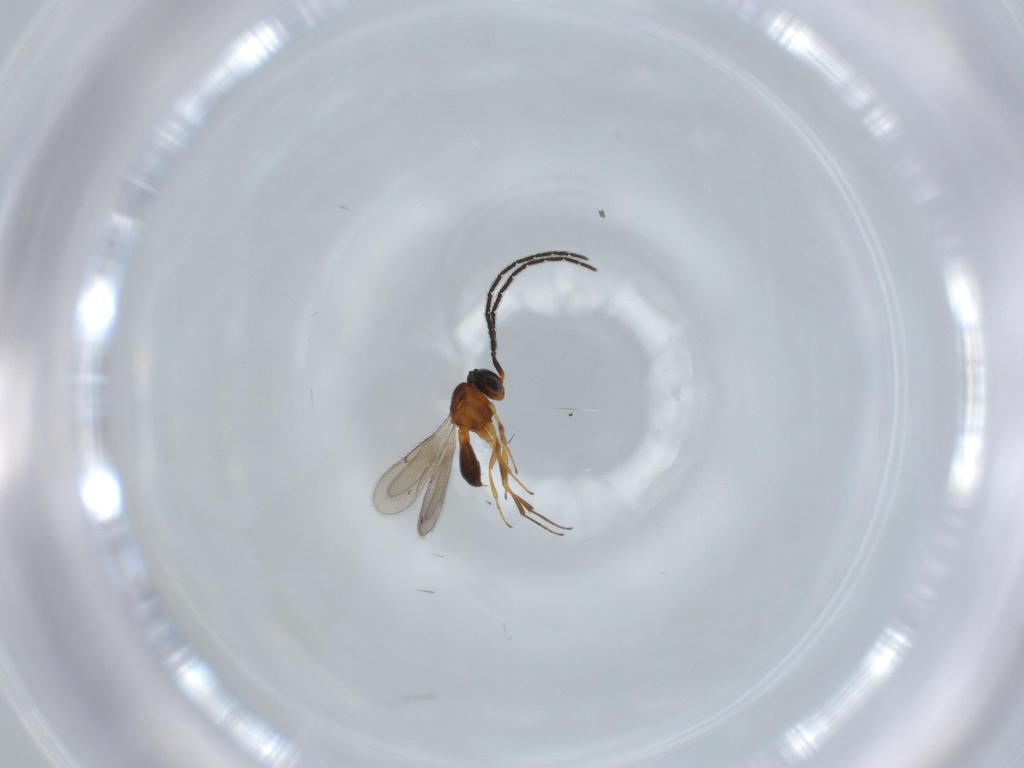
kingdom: Animalia
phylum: Arthropoda
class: Insecta
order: Hymenoptera
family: Scelionidae
